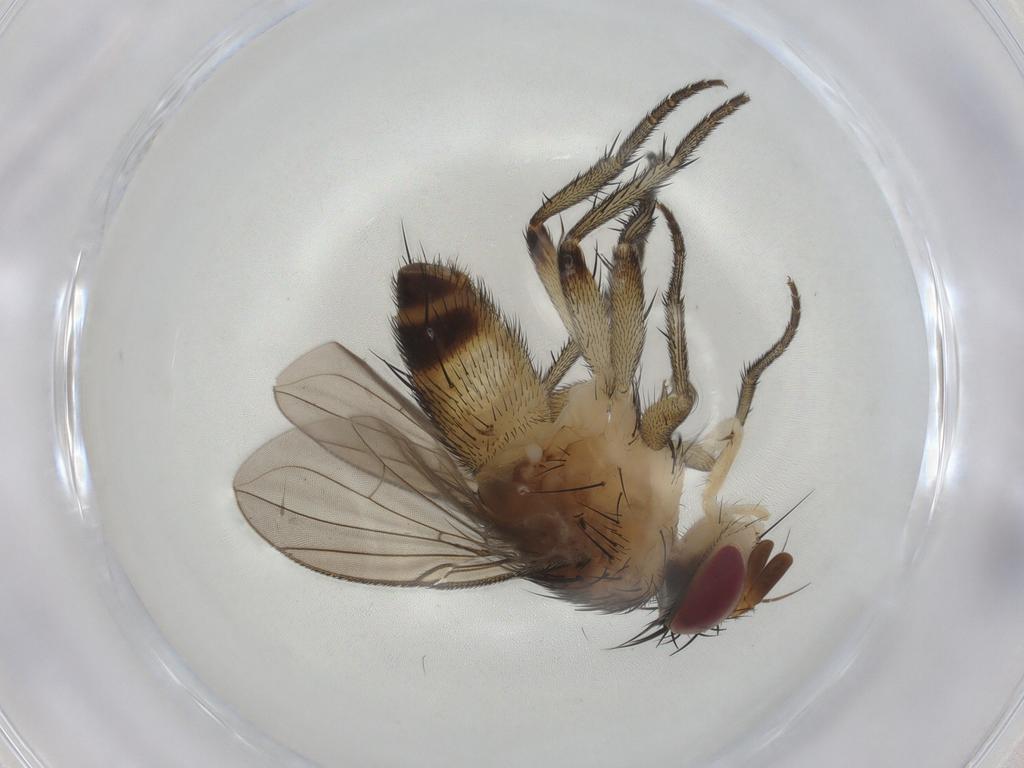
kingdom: Animalia
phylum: Arthropoda
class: Insecta
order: Diptera
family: Tachinidae
